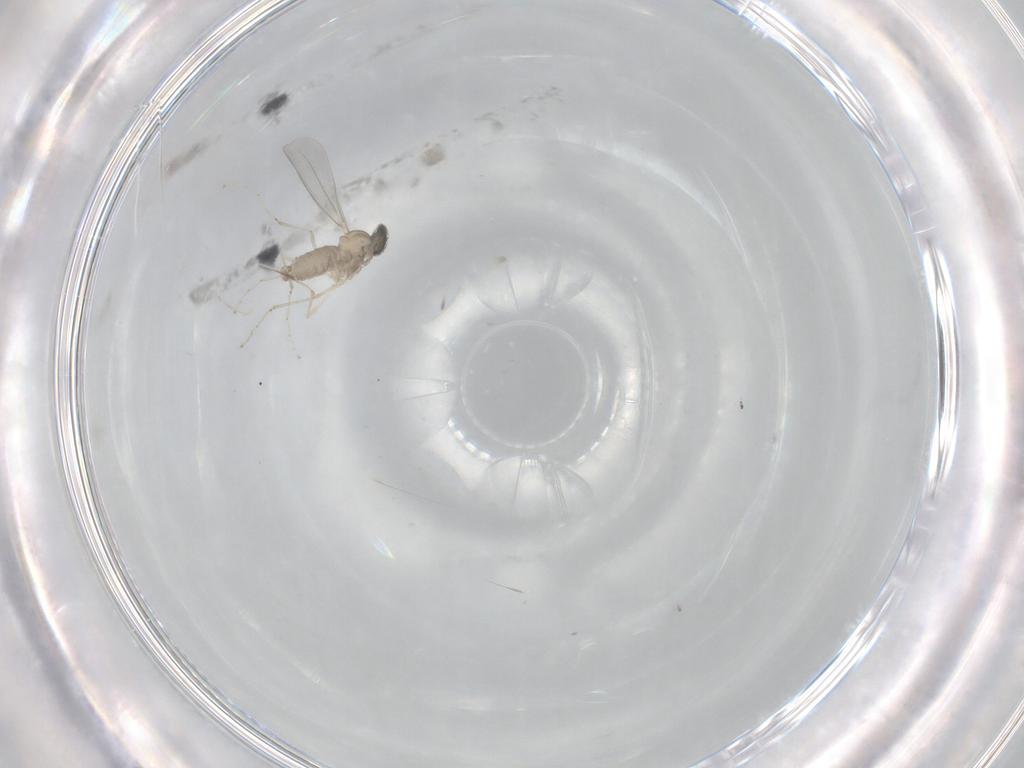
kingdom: Animalia
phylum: Arthropoda
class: Insecta
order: Diptera
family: Cecidomyiidae
